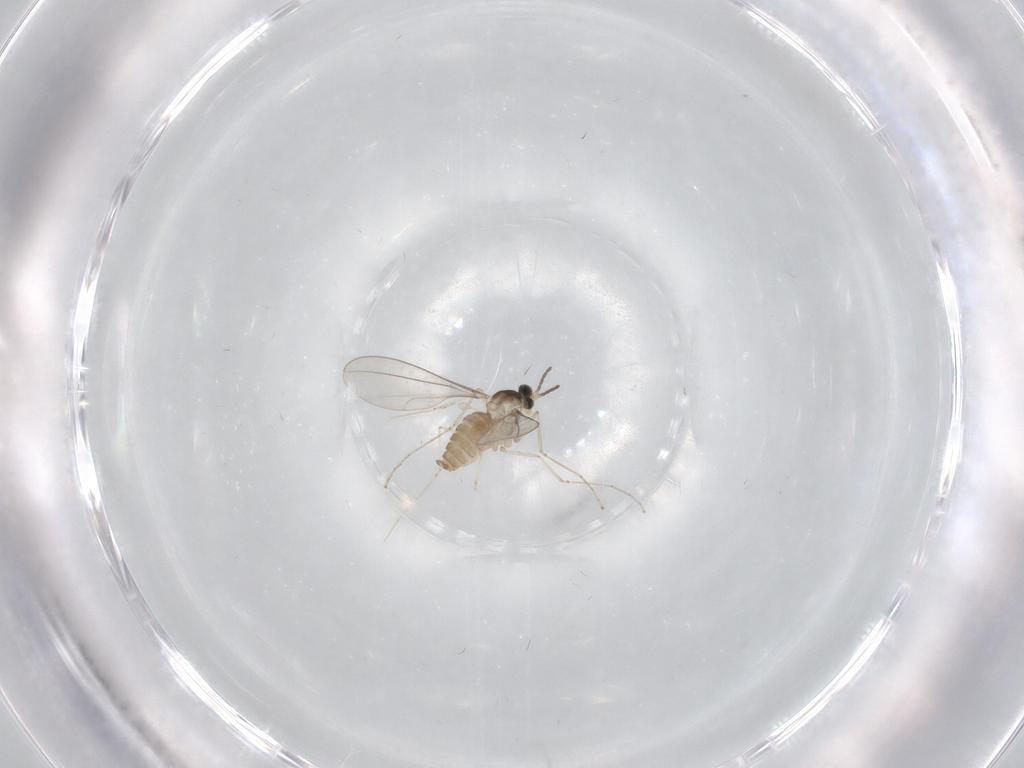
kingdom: Animalia
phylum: Arthropoda
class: Insecta
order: Diptera
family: Cecidomyiidae
